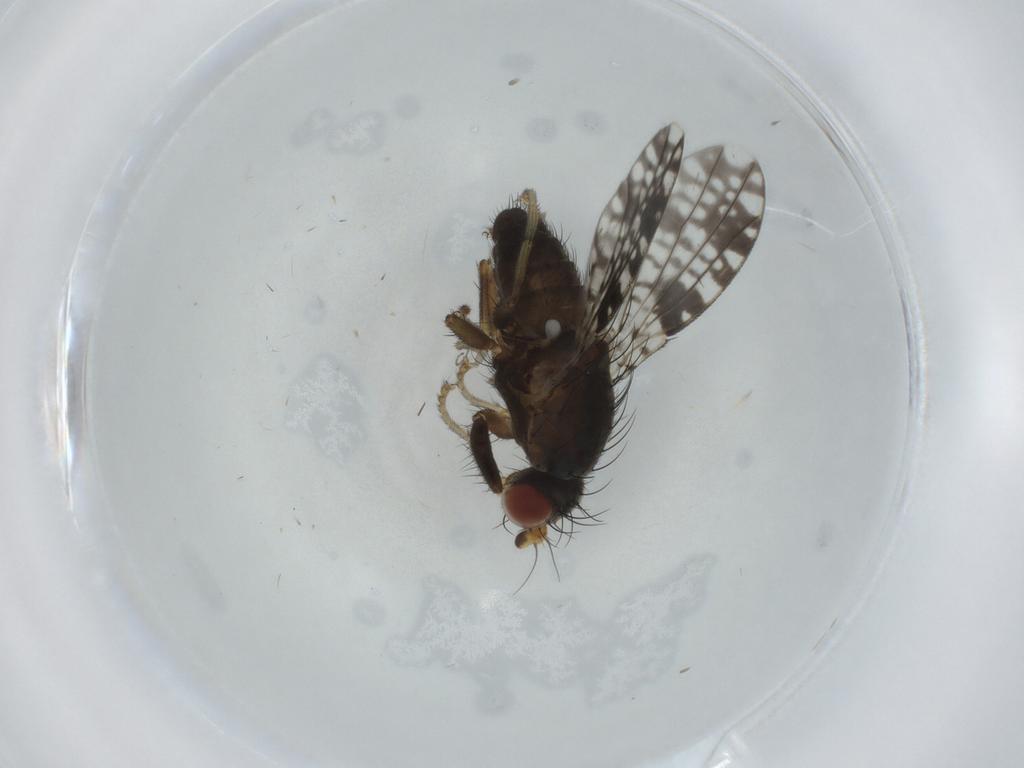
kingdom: Animalia
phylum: Arthropoda
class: Insecta
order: Diptera
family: Tephritidae
